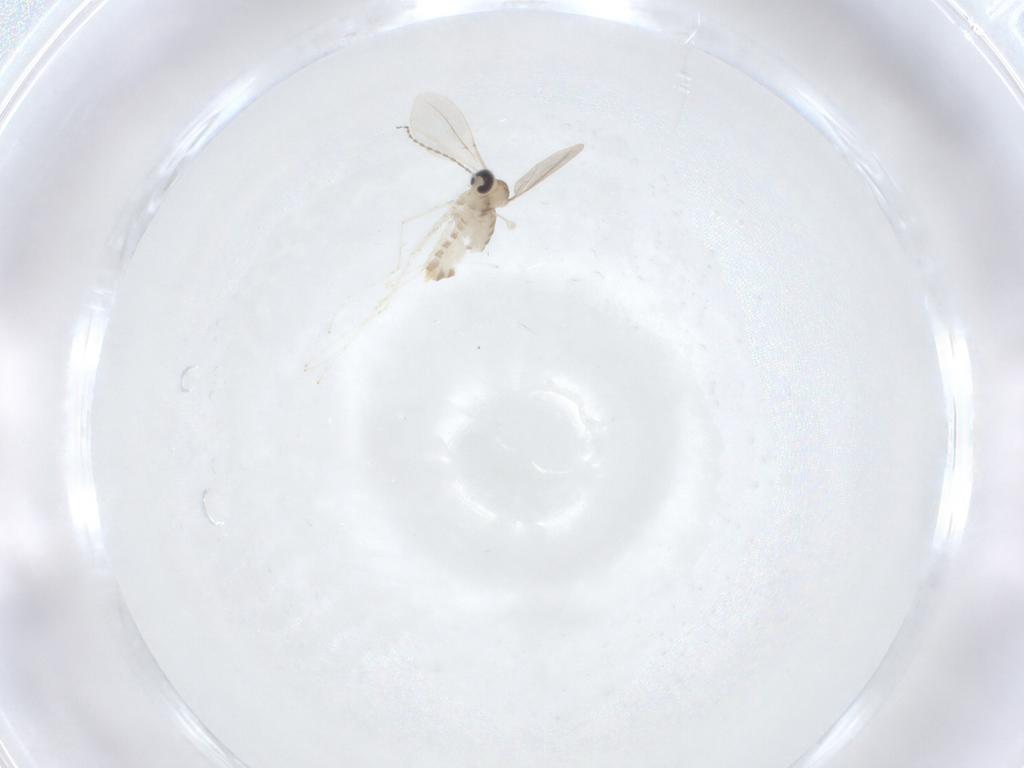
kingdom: Animalia
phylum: Arthropoda
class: Insecta
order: Diptera
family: Cecidomyiidae
